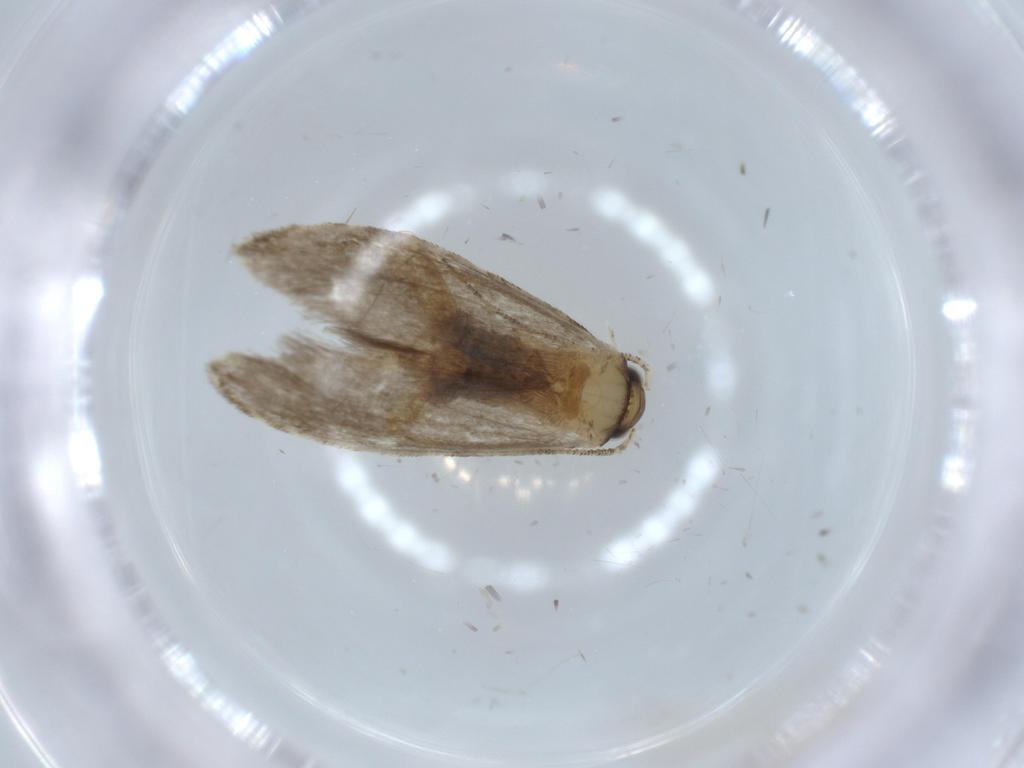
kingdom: Animalia
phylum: Arthropoda
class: Insecta
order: Lepidoptera
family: Tineidae
